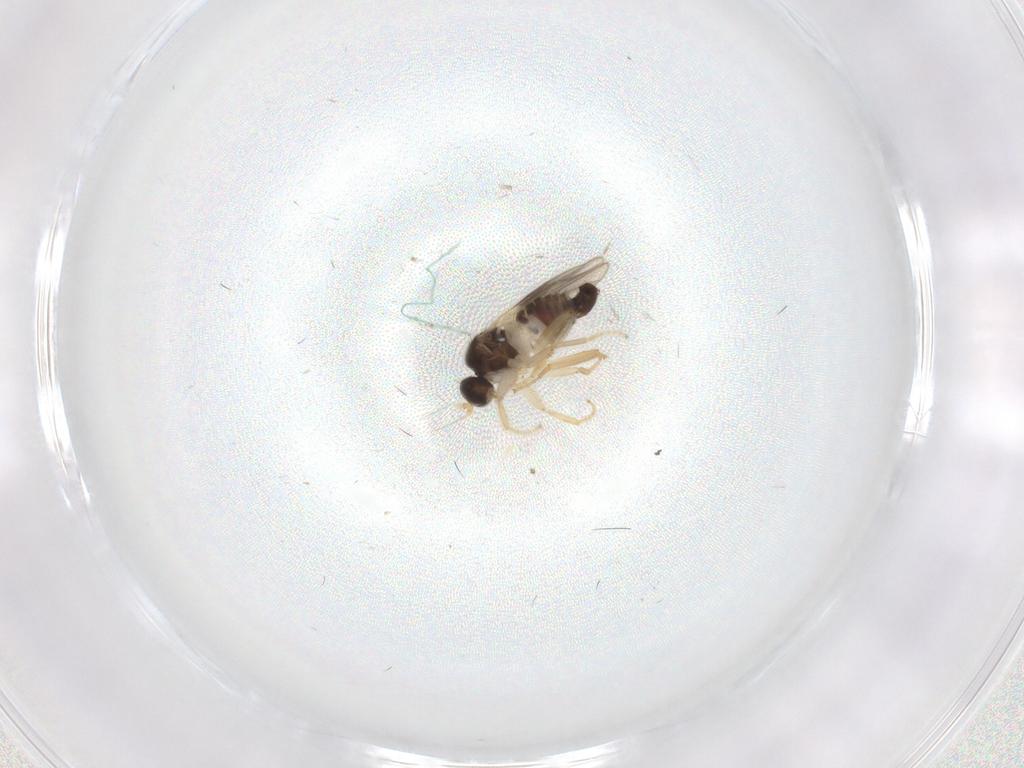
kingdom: Animalia
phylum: Arthropoda
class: Insecta
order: Diptera
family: Hybotidae
